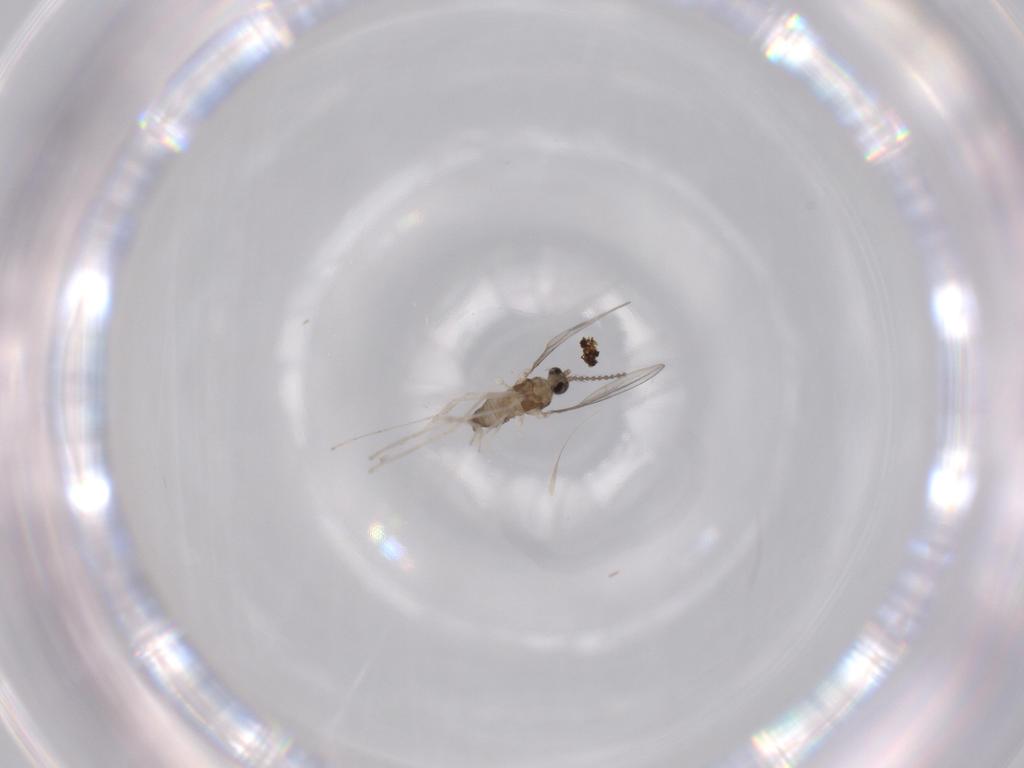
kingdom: Animalia
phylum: Arthropoda
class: Insecta
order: Diptera
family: Cecidomyiidae
